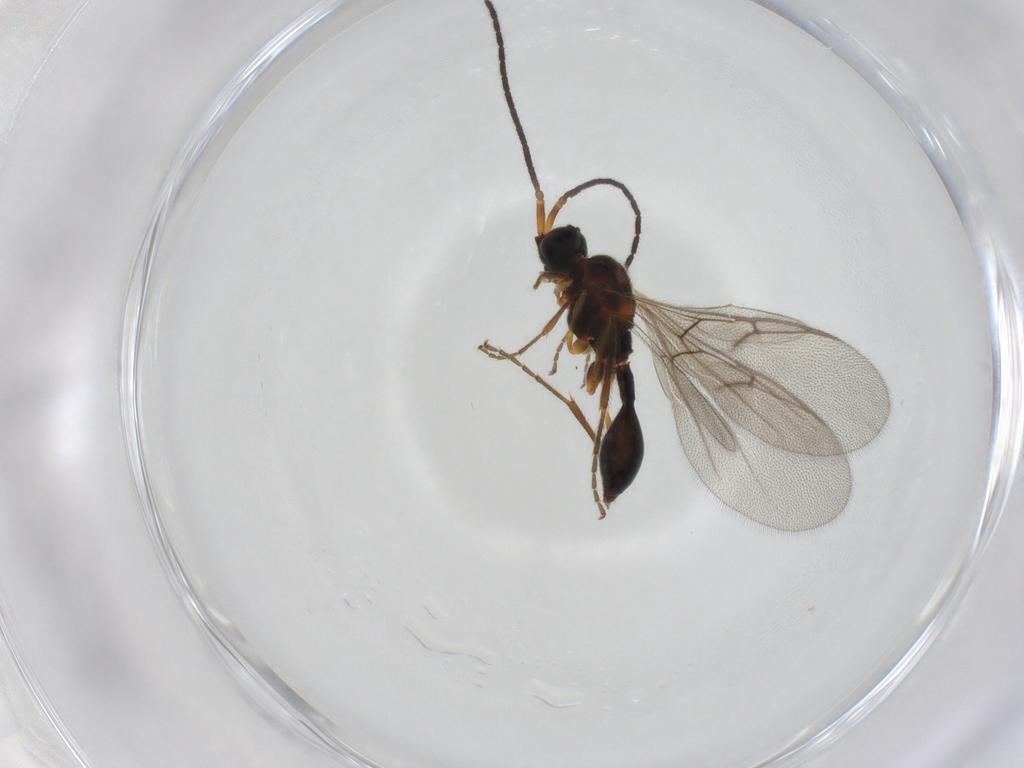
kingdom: Animalia
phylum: Arthropoda
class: Insecta
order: Hymenoptera
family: Diapriidae
